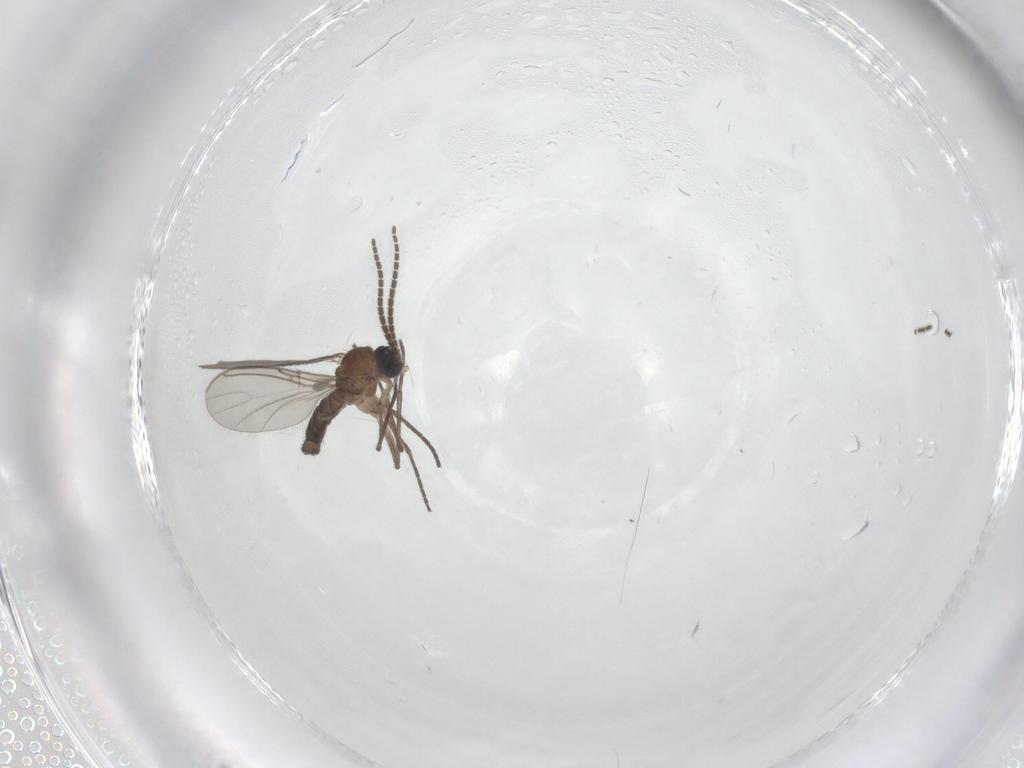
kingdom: Animalia
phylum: Arthropoda
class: Insecta
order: Diptera
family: Sciaridae
